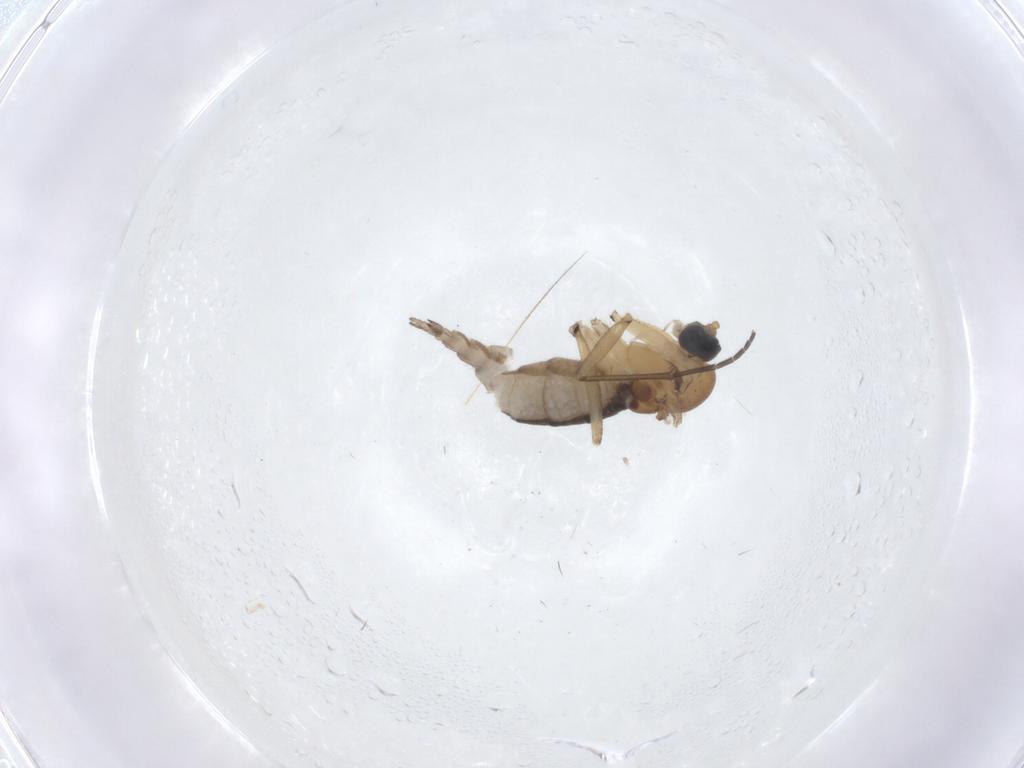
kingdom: Animalia
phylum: Arthropoda
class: Insecta
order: Diptera
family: Sciaridae
